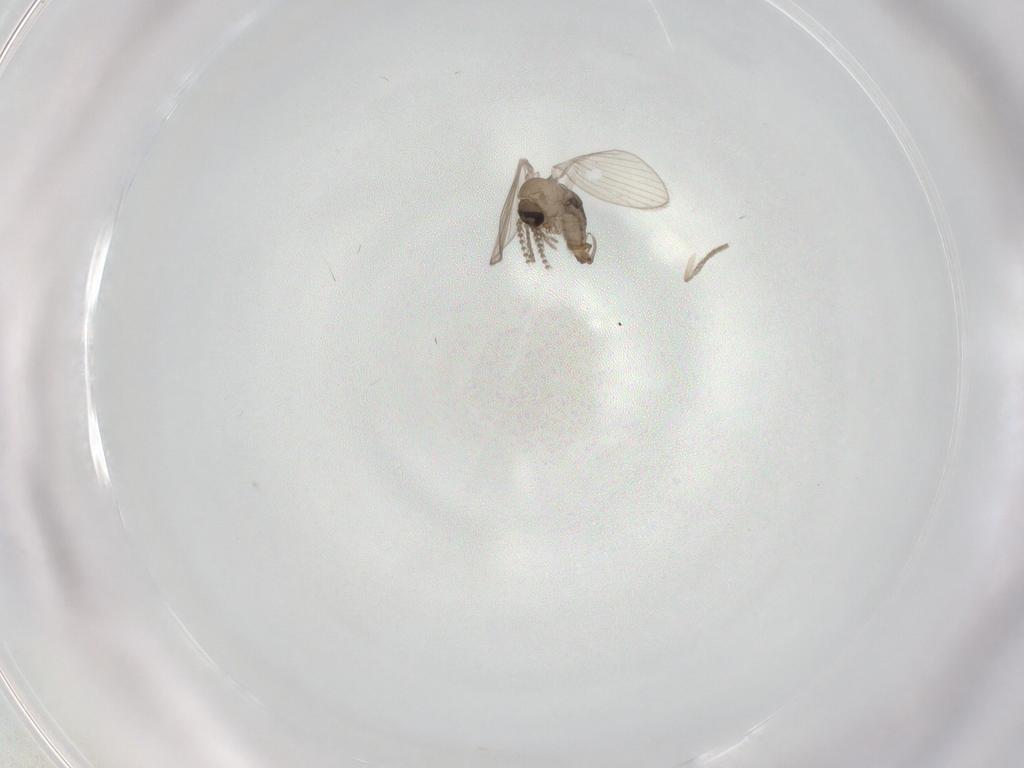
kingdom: Animalia
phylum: Arthropoda
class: Insecta
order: Diptera
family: Psychodidae
